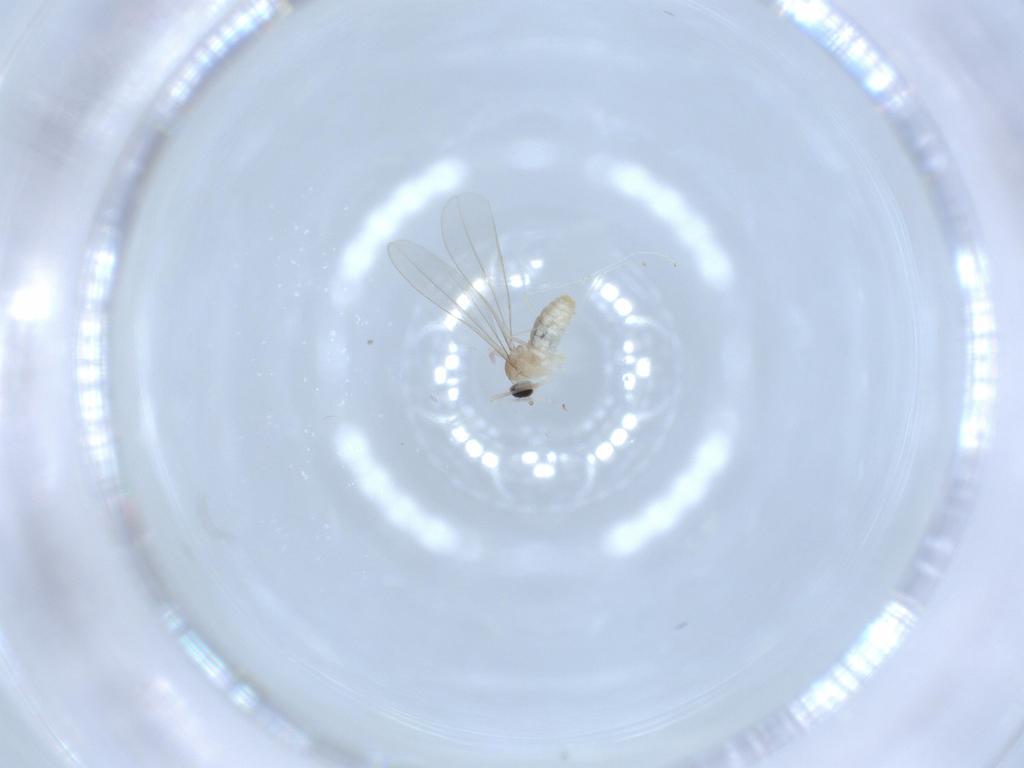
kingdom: Animalia
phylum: Arthropoda
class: Insecta
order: Diptera
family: Cecidomyiidae
